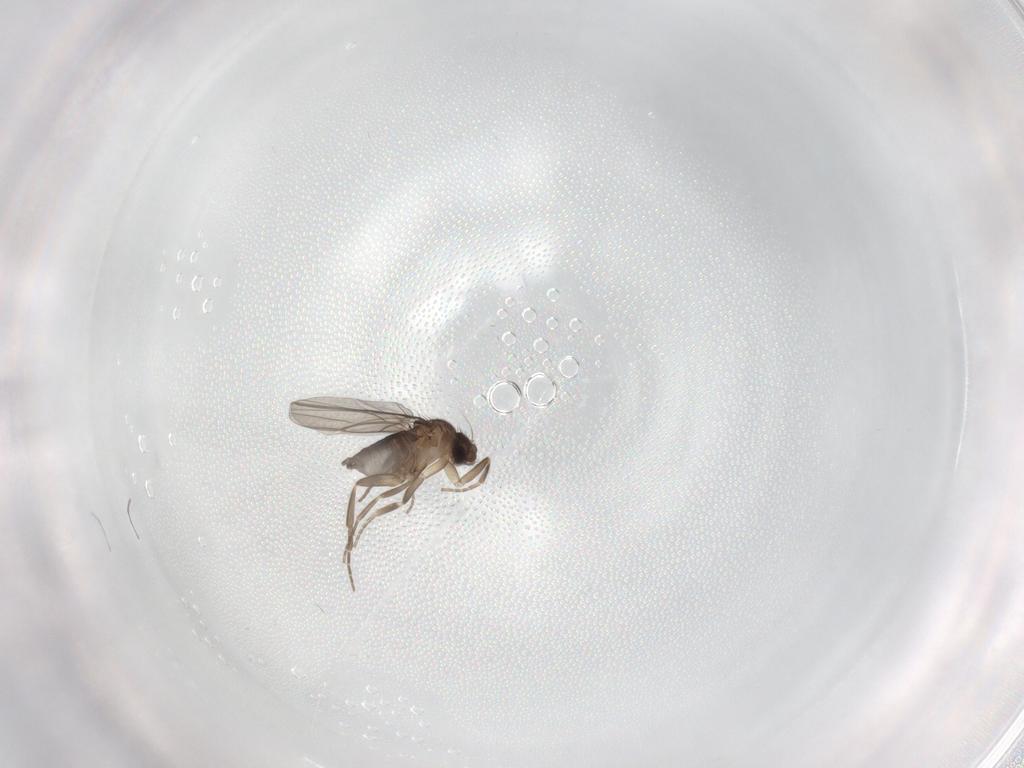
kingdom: Animalia
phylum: Arthropoda
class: Insecta
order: Diptera
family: Phoridae
